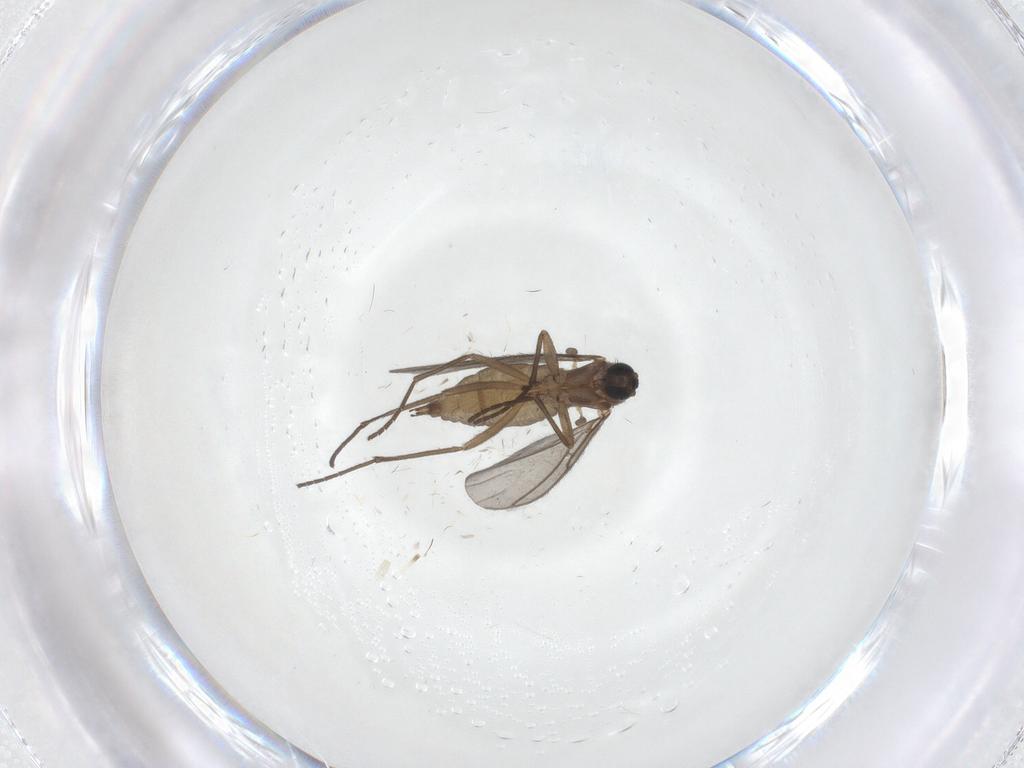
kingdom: Animalia
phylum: Arthropoda
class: Insecta
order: Diptera
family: Sciaridae
